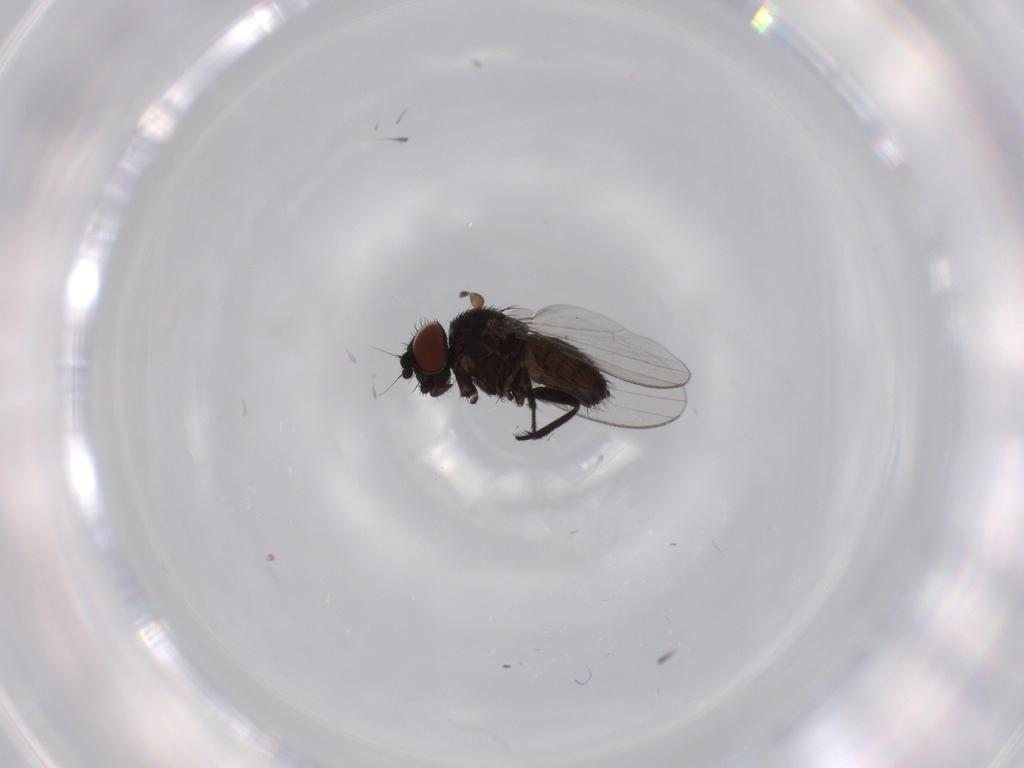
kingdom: Animalia
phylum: Arthropoda
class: Insecta
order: Diptera
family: Milichiidae
